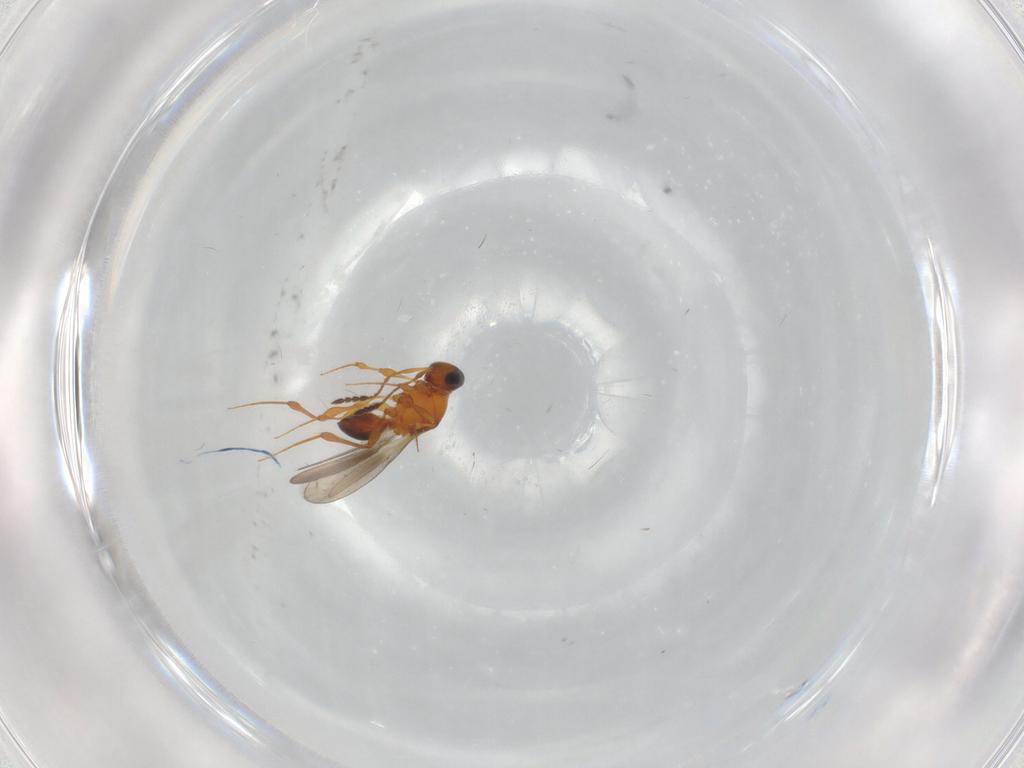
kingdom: Animalia
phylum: Arthropoda
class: Insecta
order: Hymenoptera
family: Platygastridae
